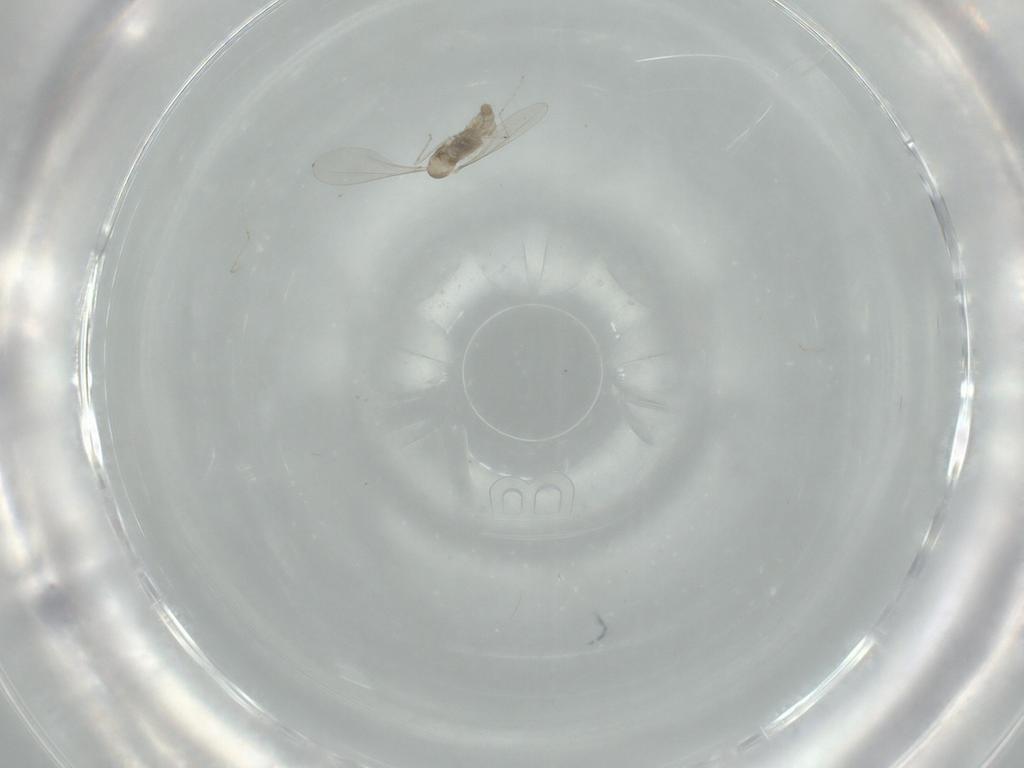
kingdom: Animalia
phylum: Arthropoda
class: Insecta
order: Diptera
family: Cecidomyiidae
